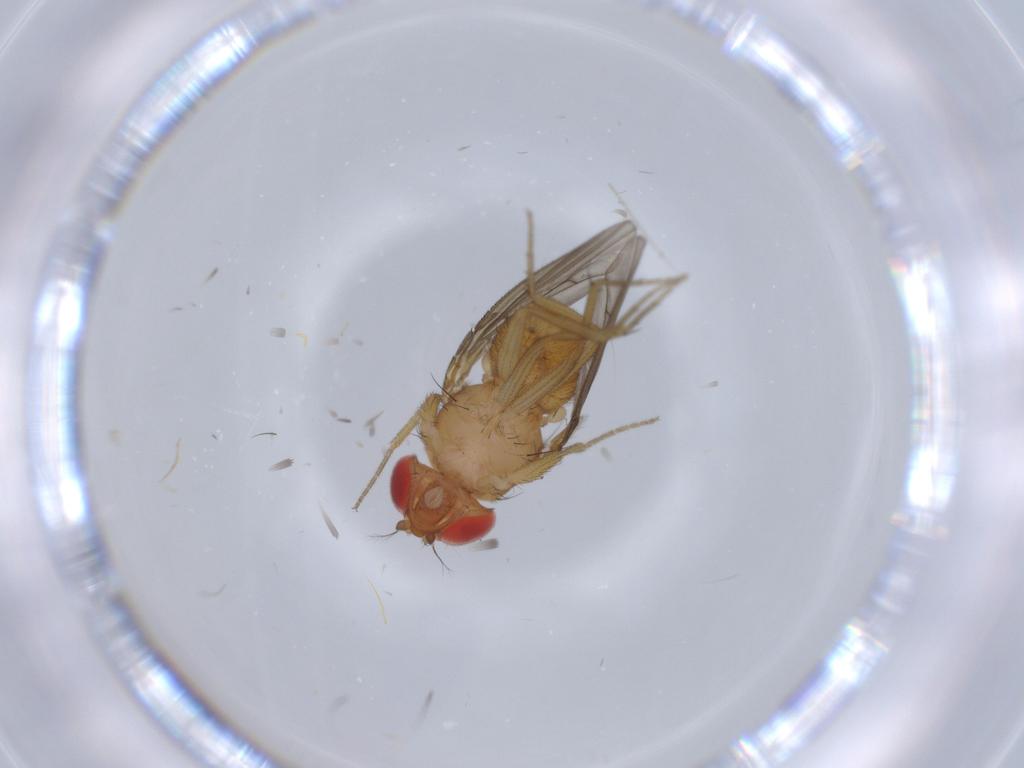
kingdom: Animalia
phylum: Arthropoda
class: Insecta
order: Diptera
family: Drosophilidae
